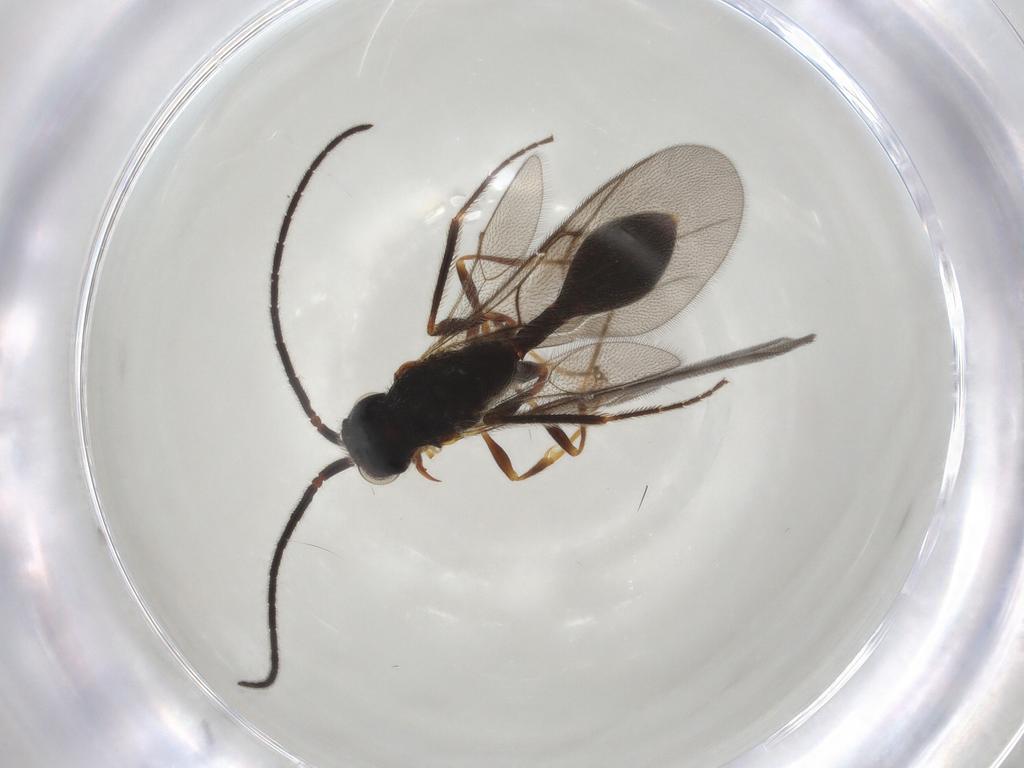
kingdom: Animalia
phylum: Arthropoda
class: Insecta
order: Hymenoptera
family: Diapriidae
